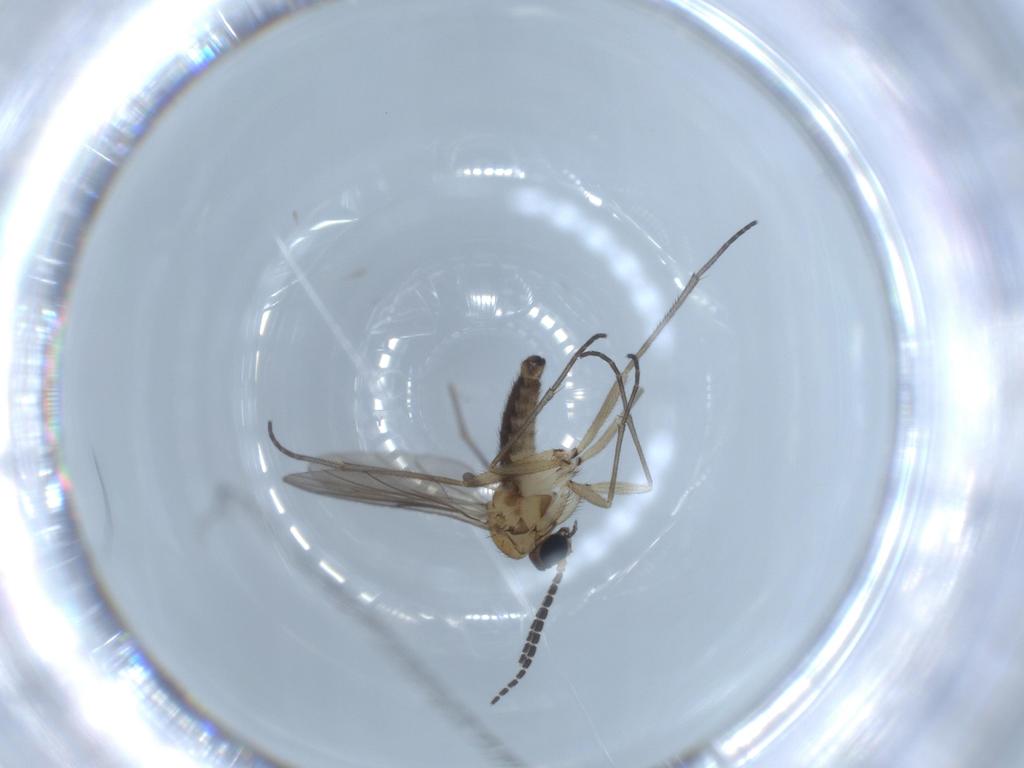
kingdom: Animalia
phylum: Arthropoda
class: Insecta
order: Diptera
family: Sciaridae
